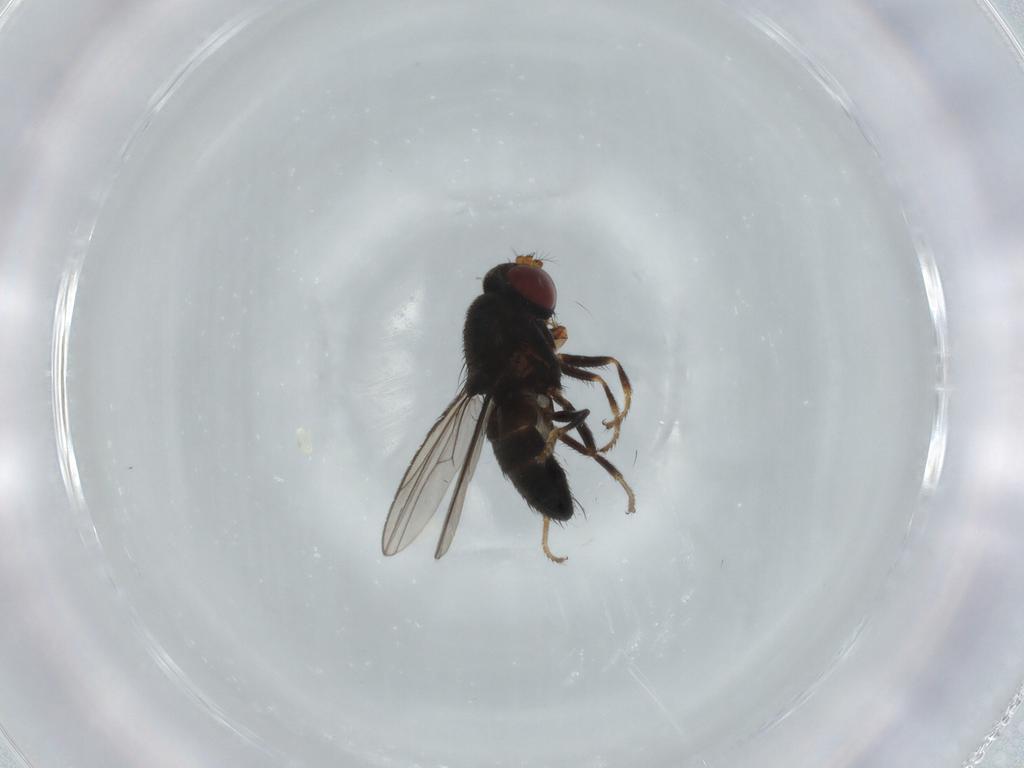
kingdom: Animalia
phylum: Arthropoda
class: Insecta
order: Diptera
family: Ephydridae
